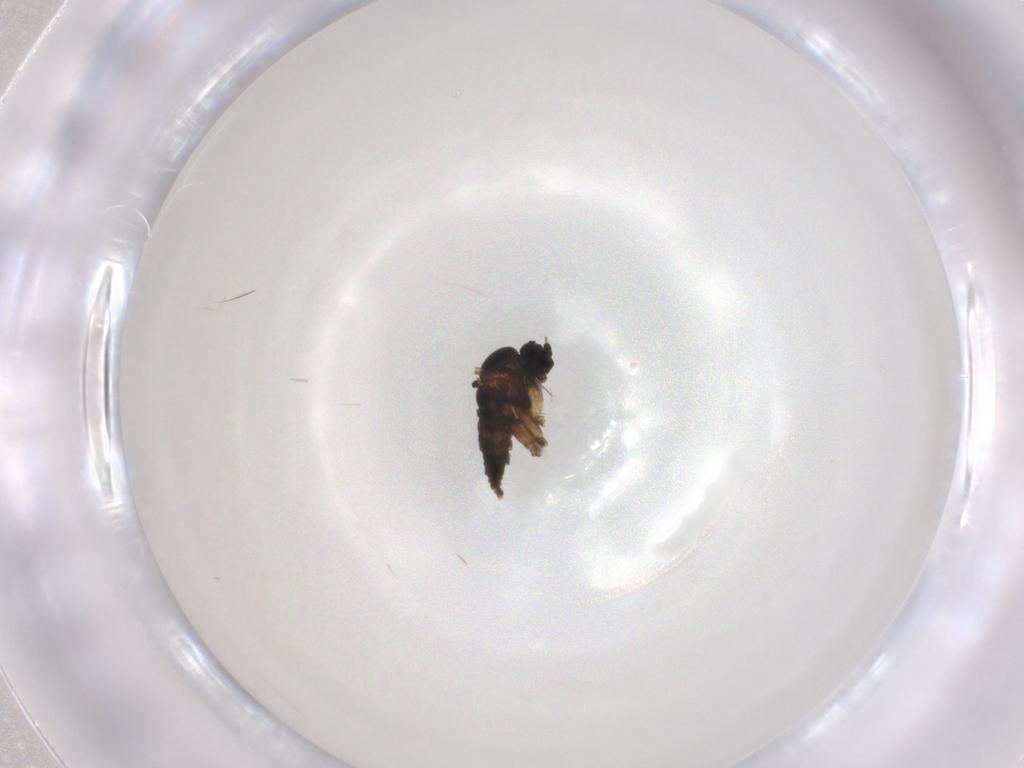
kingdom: Animalia
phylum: Arthropoda
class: Insecta
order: Diptera
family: Sciaridae
